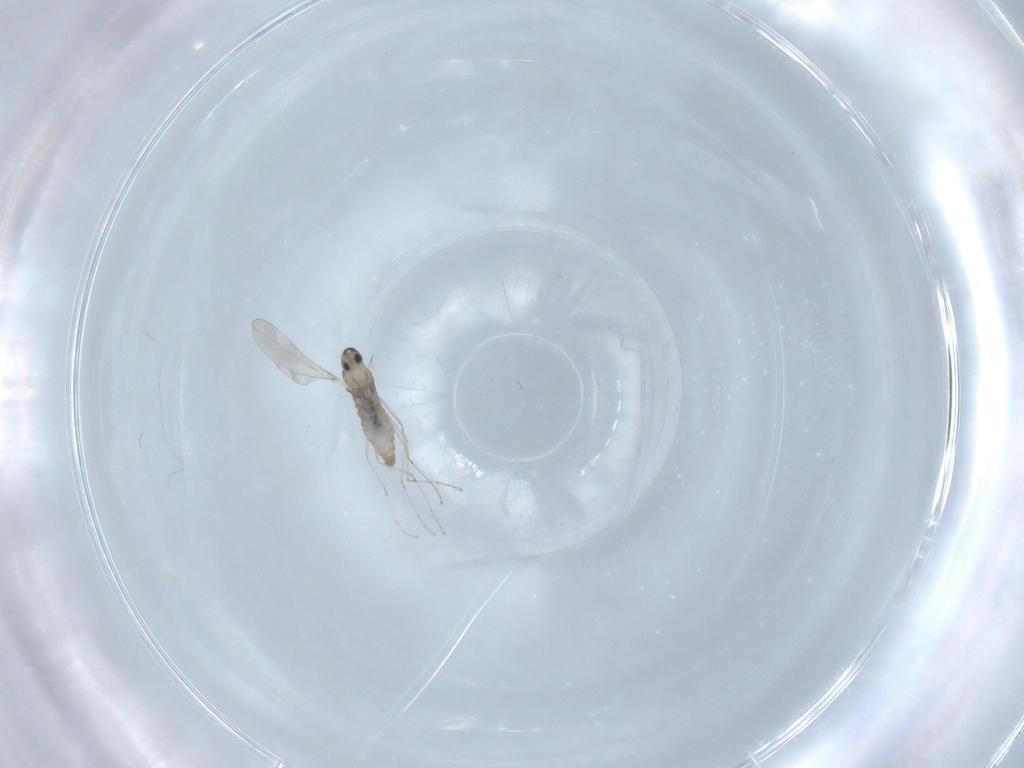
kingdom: Animalia
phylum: Arthropoda
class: Insecta
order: Diptera
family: Cecidomyiidae
